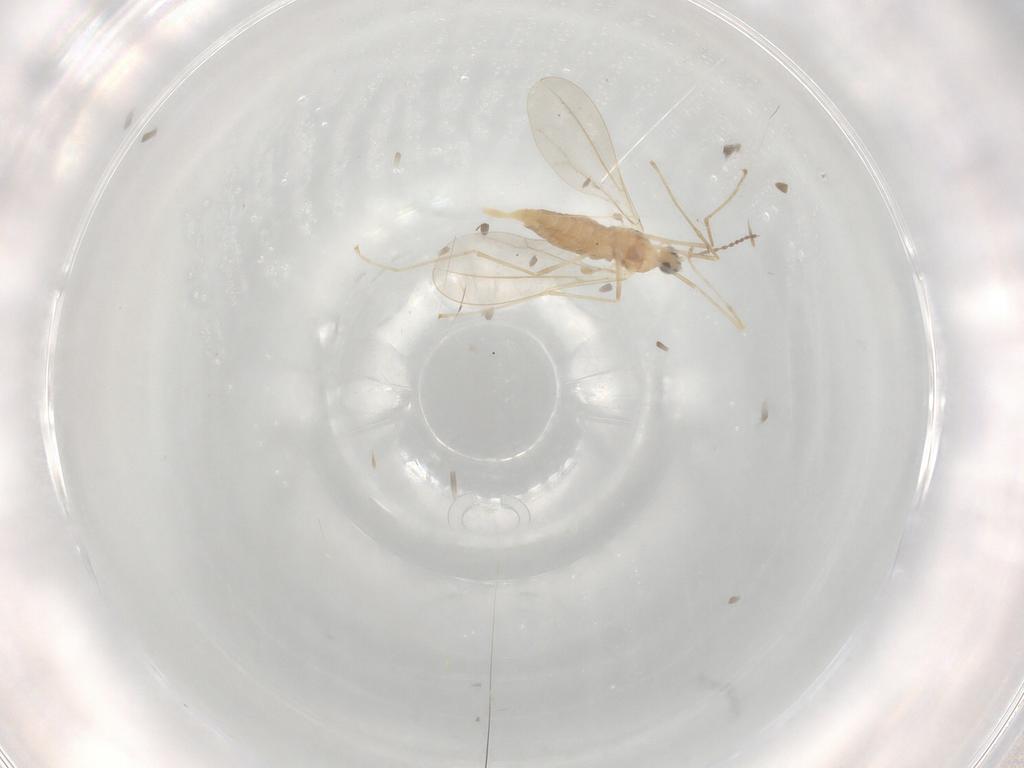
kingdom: Animalia
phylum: Arthropoda
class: Insecta
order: Diptera
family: Cecidomyiidae
